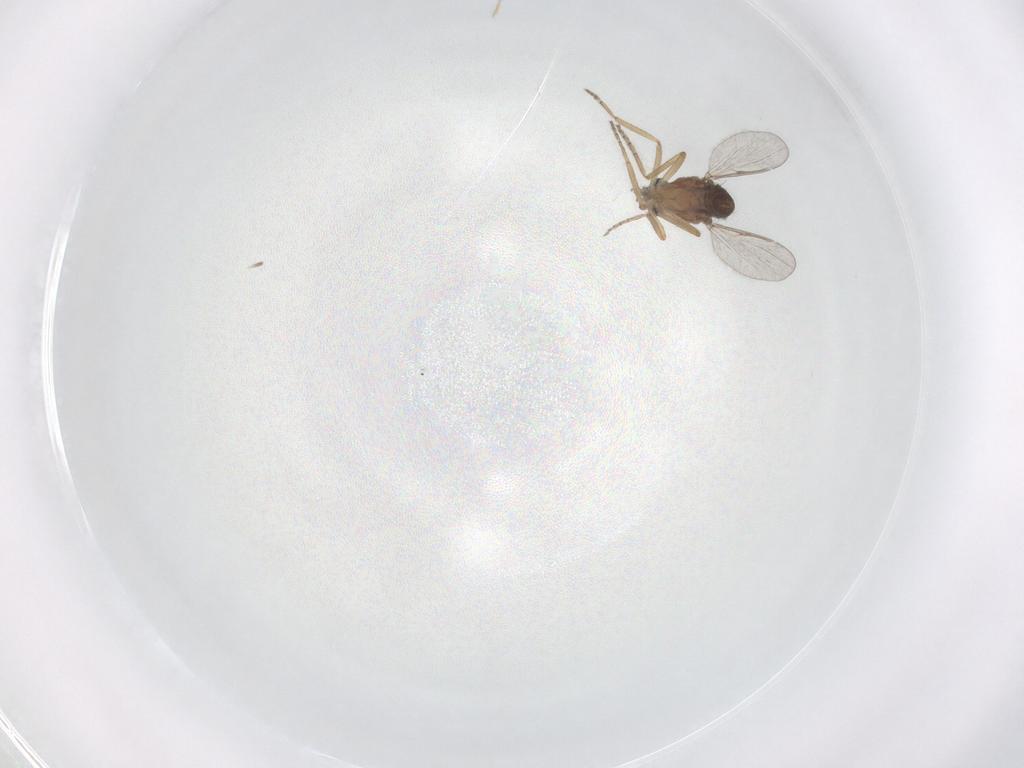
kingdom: Animalia
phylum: Arthropoda
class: Insecta
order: Diptera
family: Ceratopogonidae
